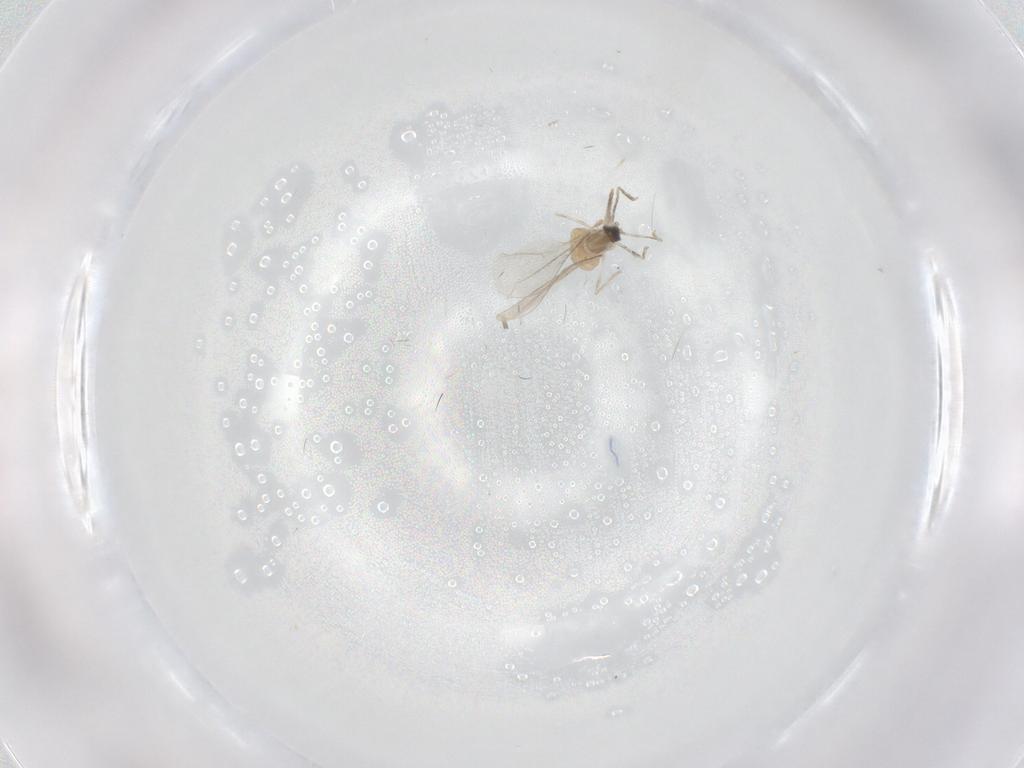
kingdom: Animalia
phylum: Arthropoda
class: Insecta
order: Diptera
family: Cecidomyiidae
